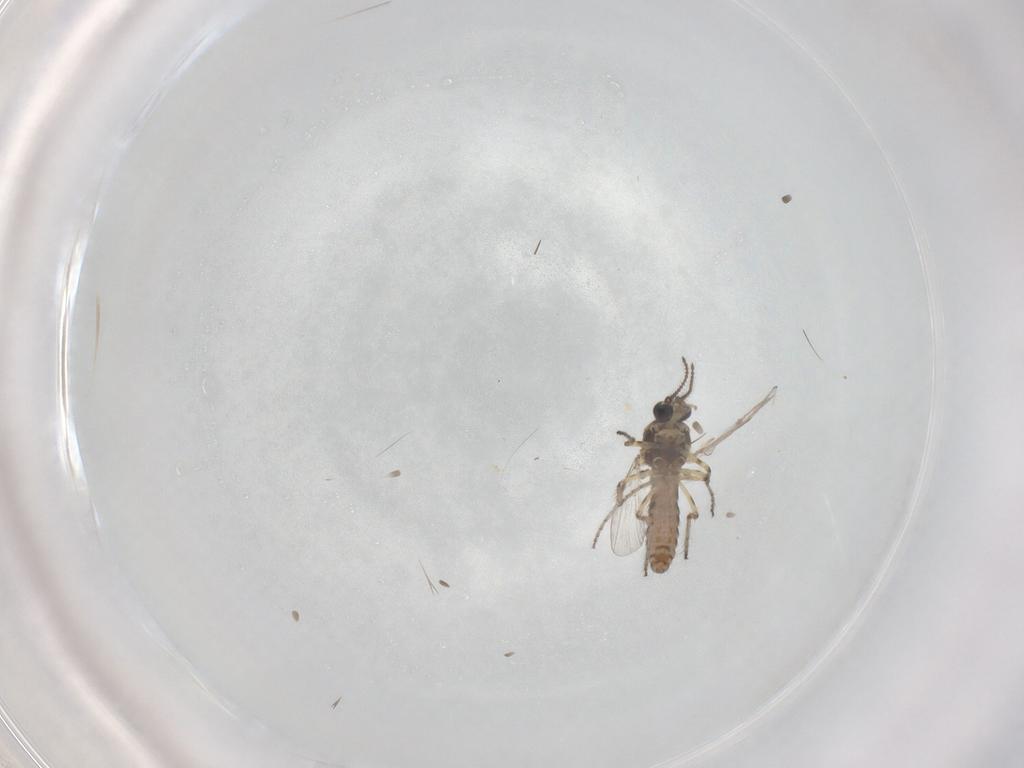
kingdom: Animalia
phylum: Arthropoda
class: Insecta
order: Diptera
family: Ceratopogonidae
